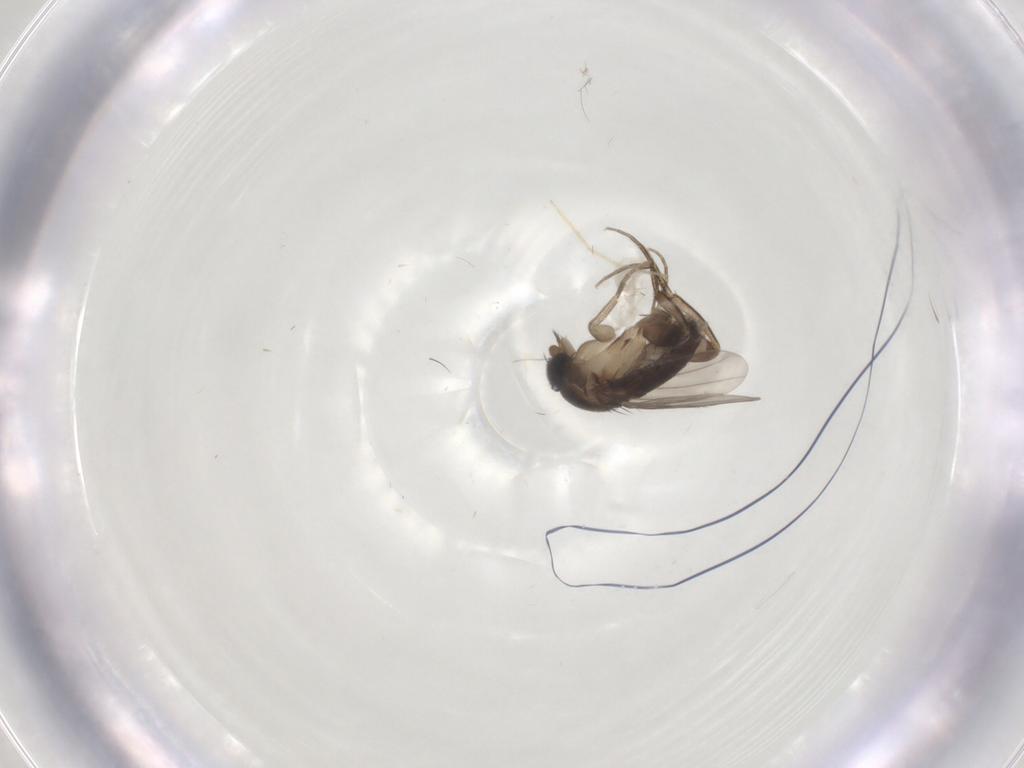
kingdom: Animalia
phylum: Arthropoda
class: Insecta
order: Diptera
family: Phoridae
